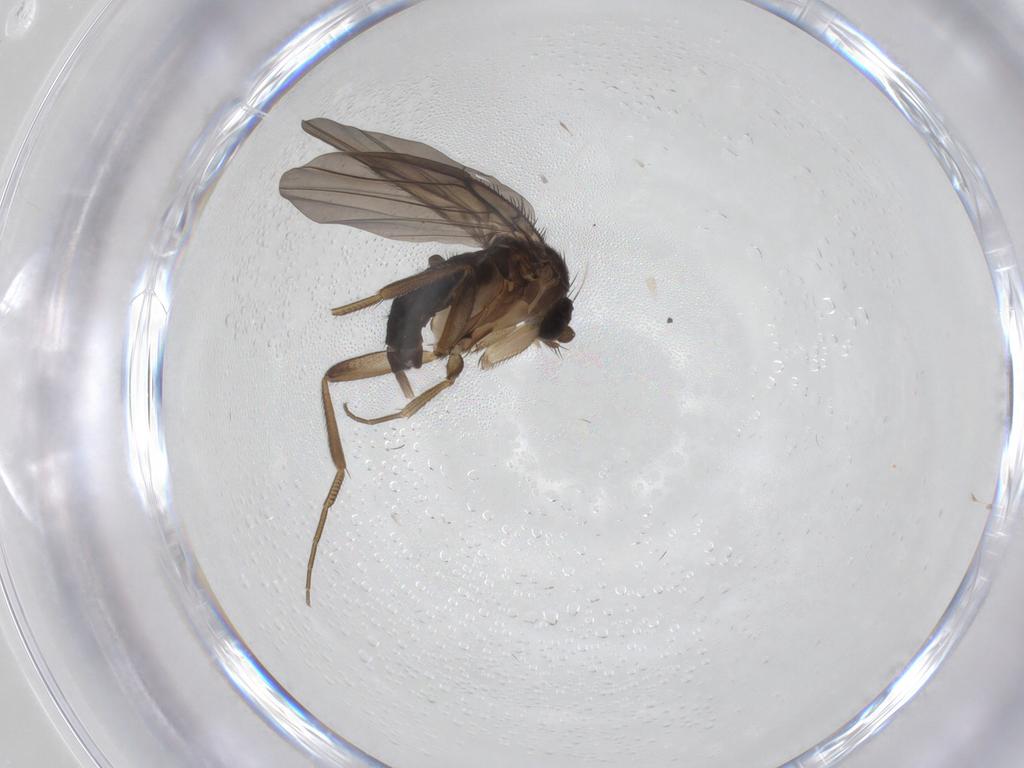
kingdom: Animalia
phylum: Arthropoda
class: Insecta
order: Diptera
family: Phoridae
